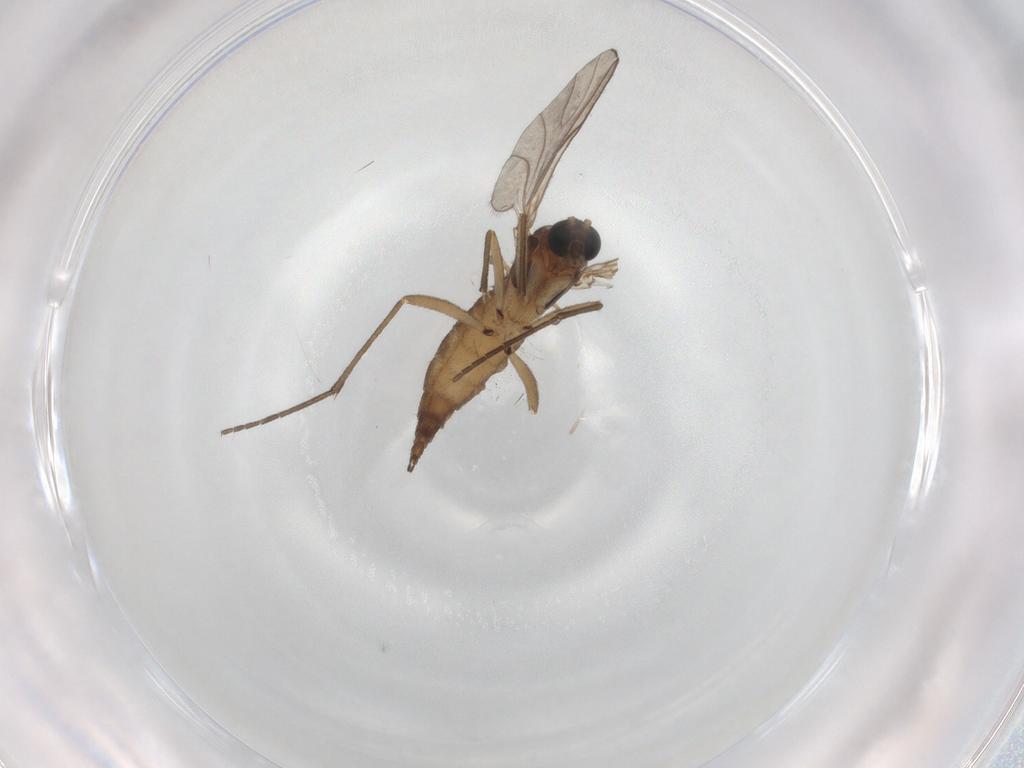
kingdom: Animalia
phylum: Arthropoda
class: Insecta
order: Diptera
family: Sciaridae
